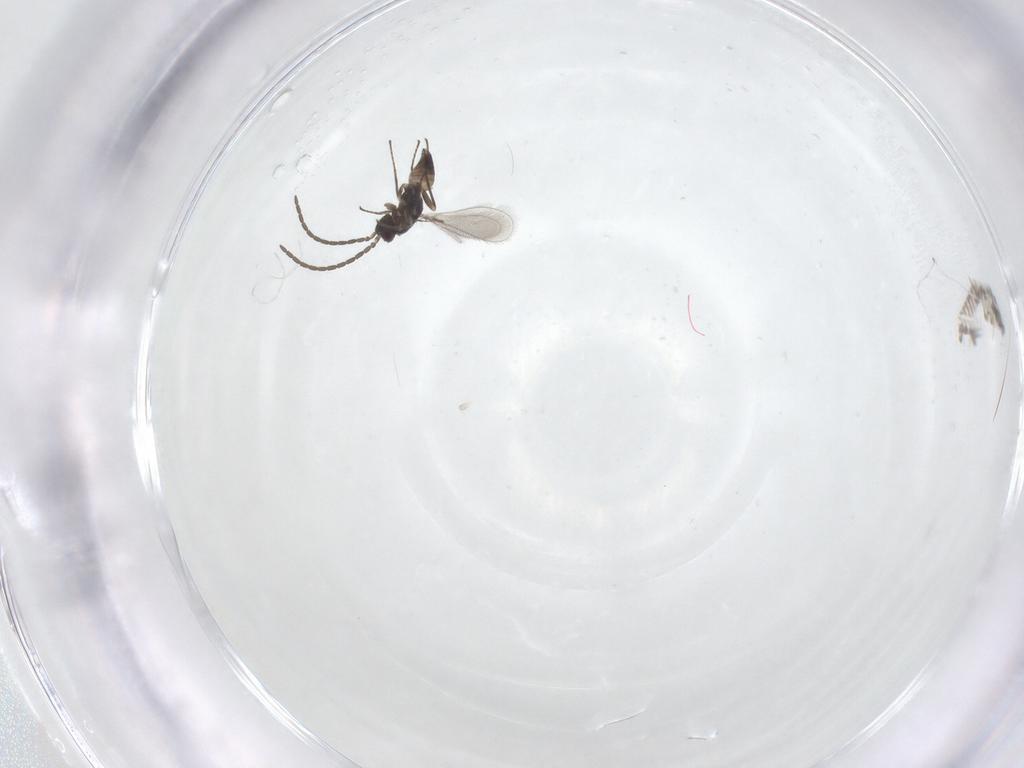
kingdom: Animalia
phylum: Arthropoda
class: Insecta
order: Hymenoptera
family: Mymaridae
